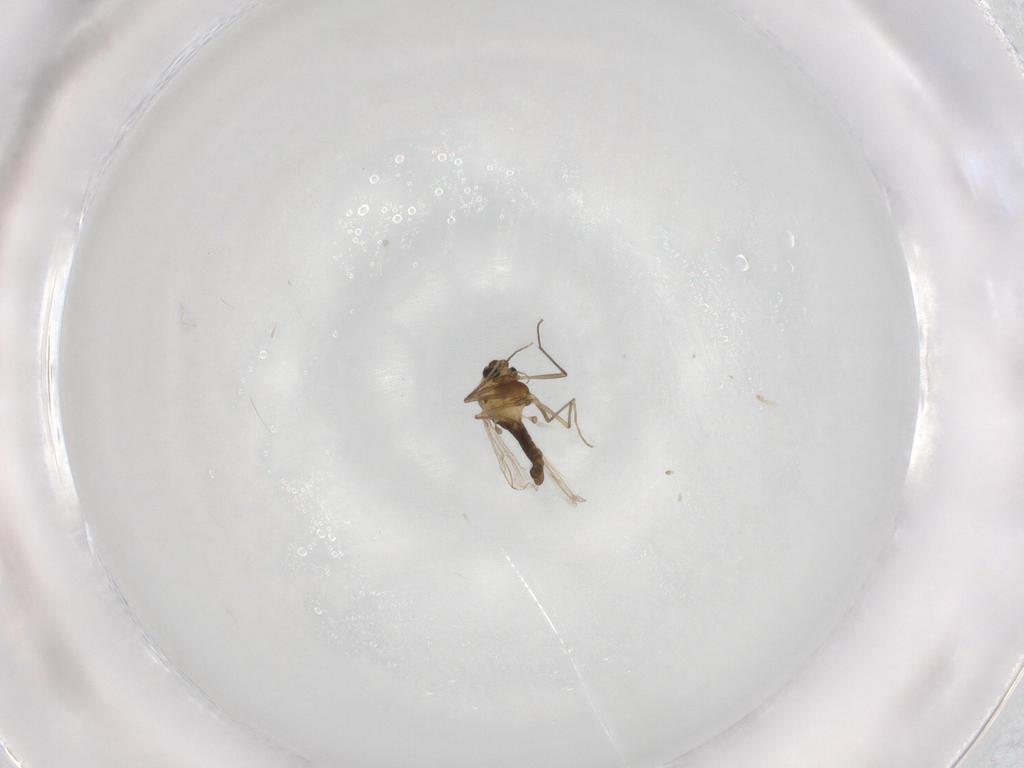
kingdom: Animalia
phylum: Arthropoda
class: Insecta
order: Diptera
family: Chironomidae
